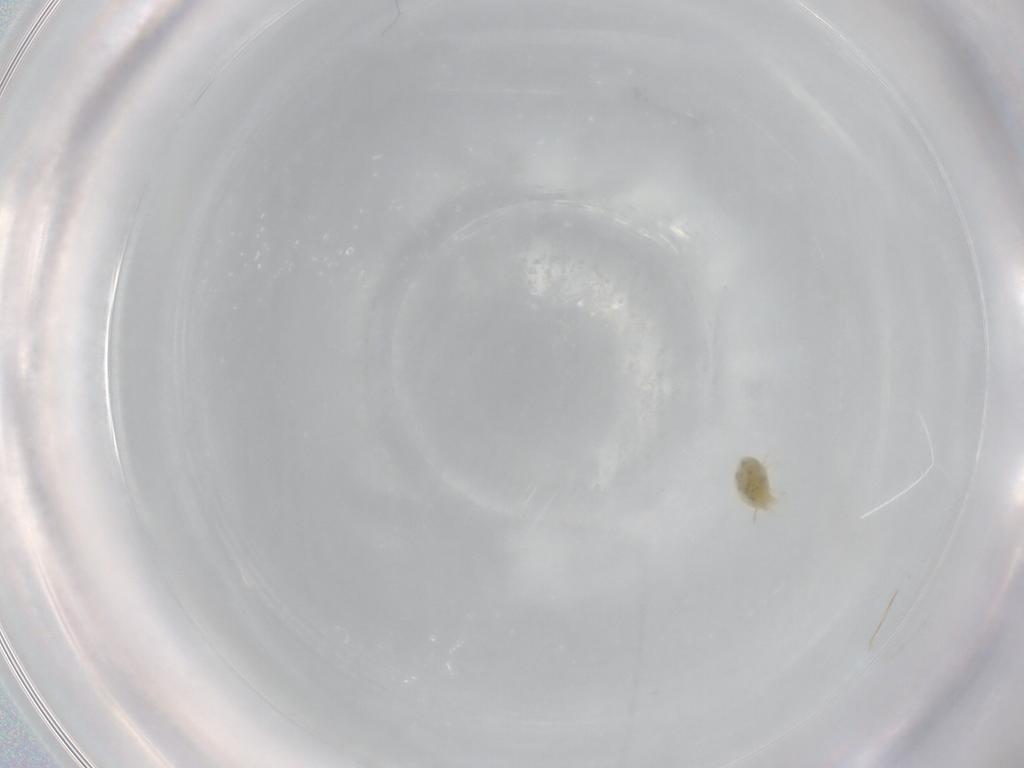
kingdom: Animalia
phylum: Arthropoda
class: Arachnida
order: Trombidiformes
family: Tetranychidae
